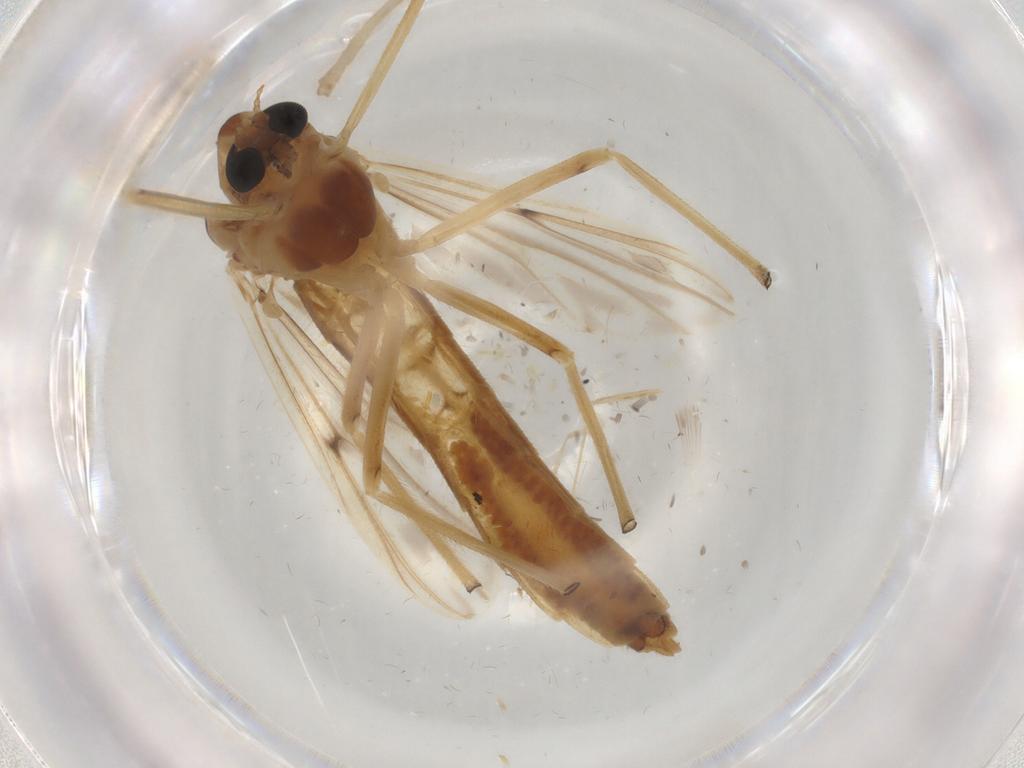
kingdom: Animalia
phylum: Arthropoda
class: Insecta
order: Diptera
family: Chironomidae
